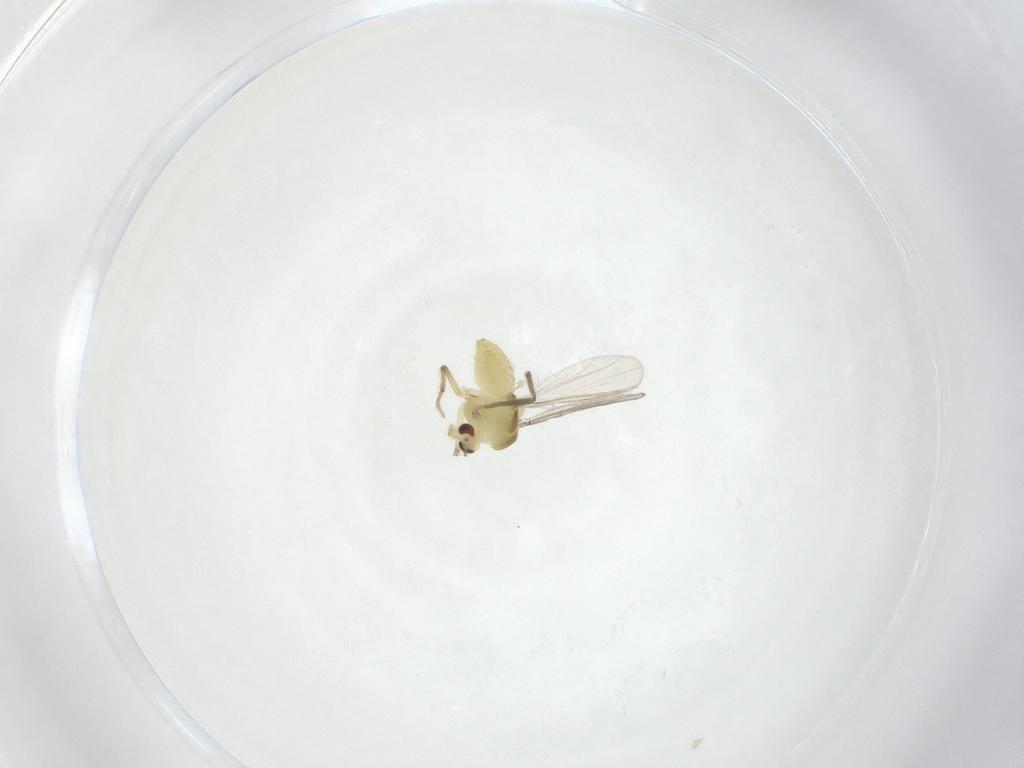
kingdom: Animalia
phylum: Arthropoda
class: Insecta
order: Diptera
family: Chironomidae
